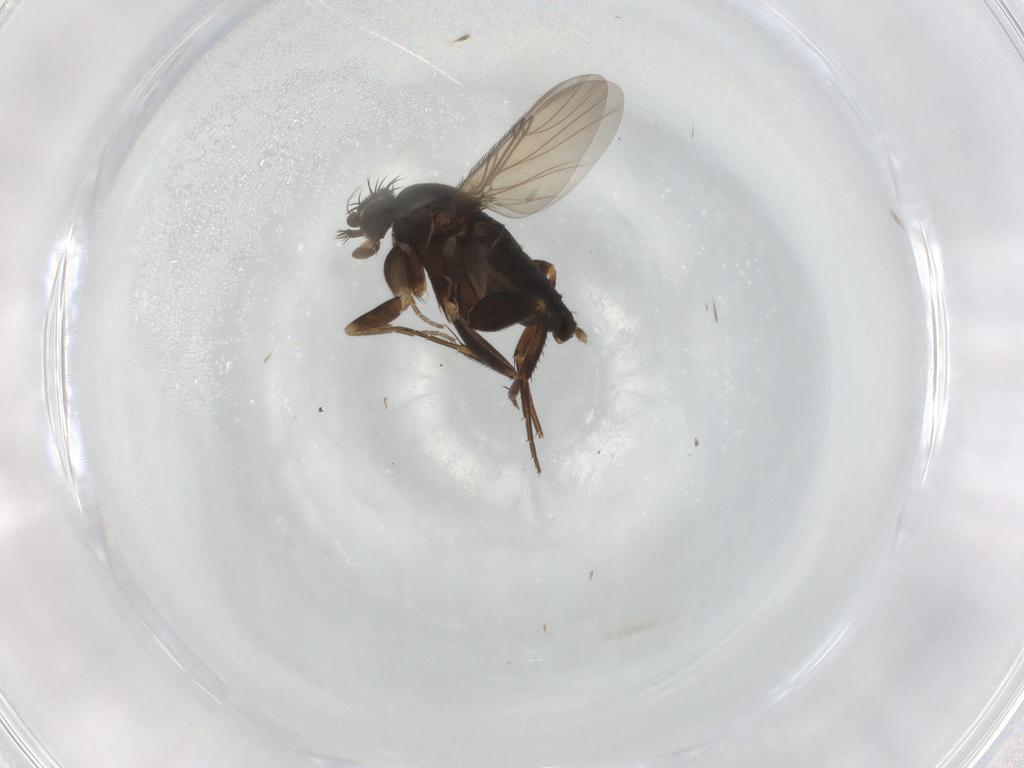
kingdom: Animalia
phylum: Arthropoda
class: Insecta
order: Diptera
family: Phoridae
